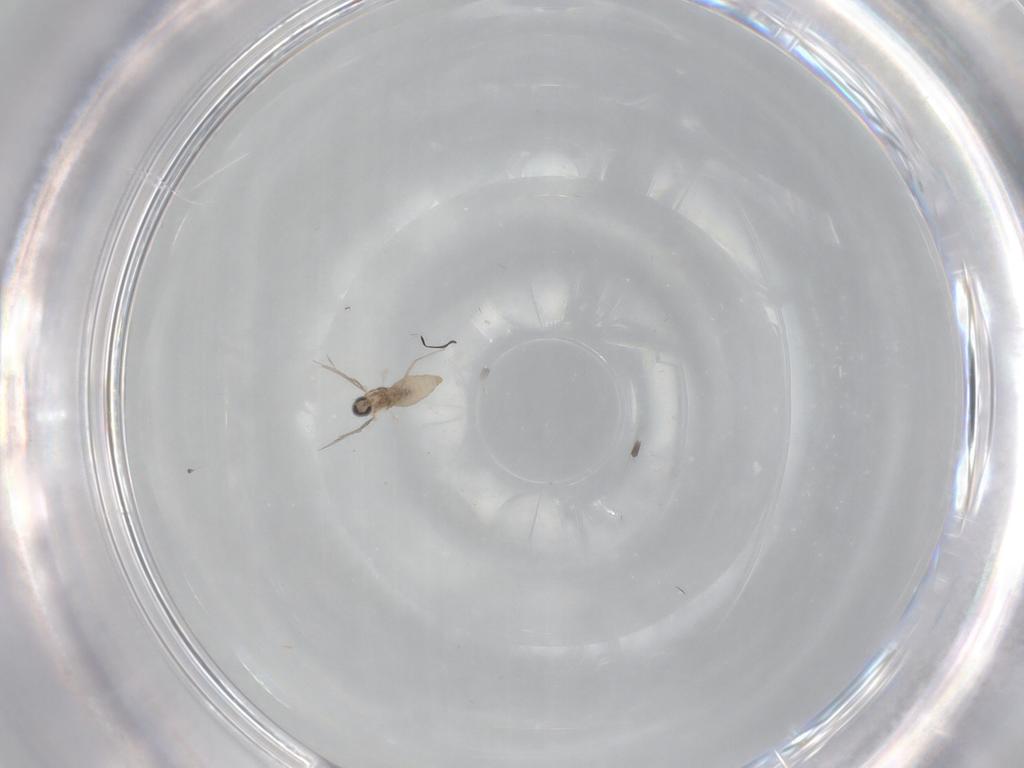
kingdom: Animalia
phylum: Arthropoda
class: Insecta
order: Diptera
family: Cecidomyiidae
